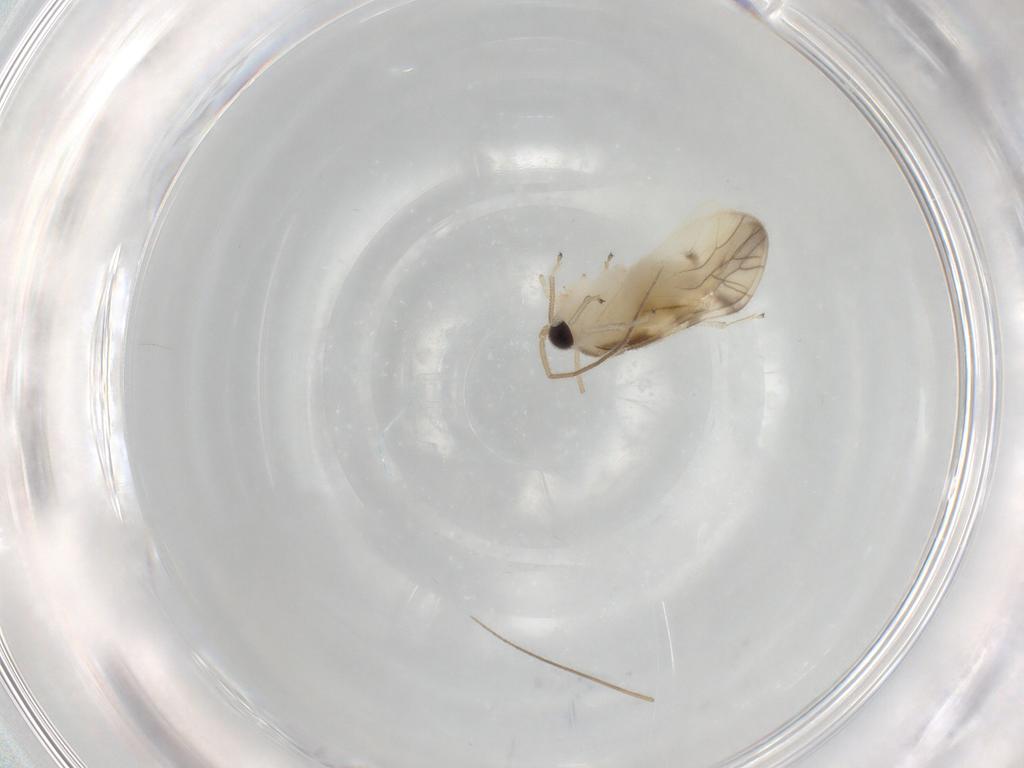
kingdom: Animalia
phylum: Arthropoda
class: Insecta
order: Psocodea
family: Caeciliusidae
